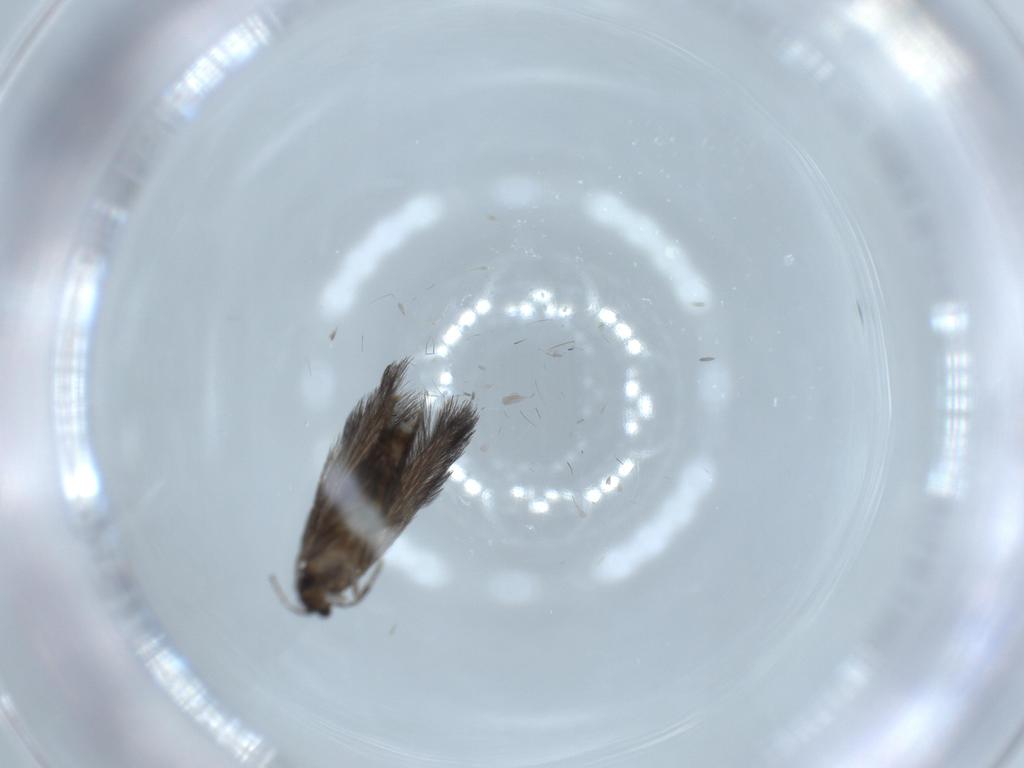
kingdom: Animalia
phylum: Arthropoda
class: Insecta
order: Trichoptera
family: Hydroptilidae
